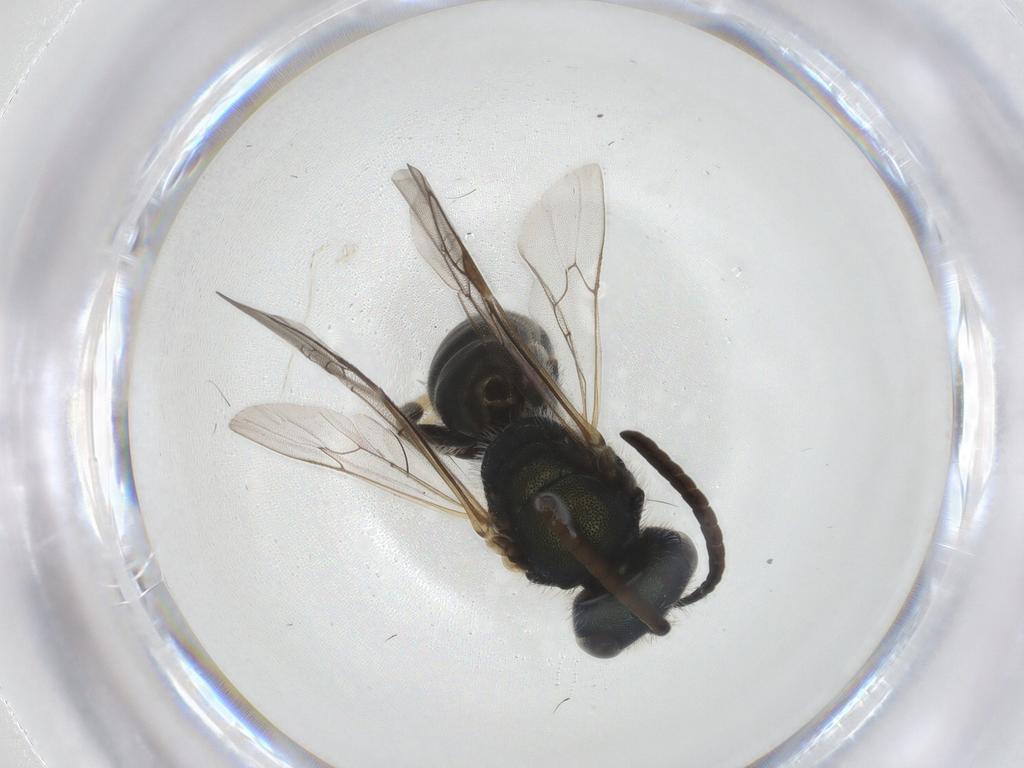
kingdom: Animalia
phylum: Arthropoda
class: Insecta
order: Hymenoptera
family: Halictidae
